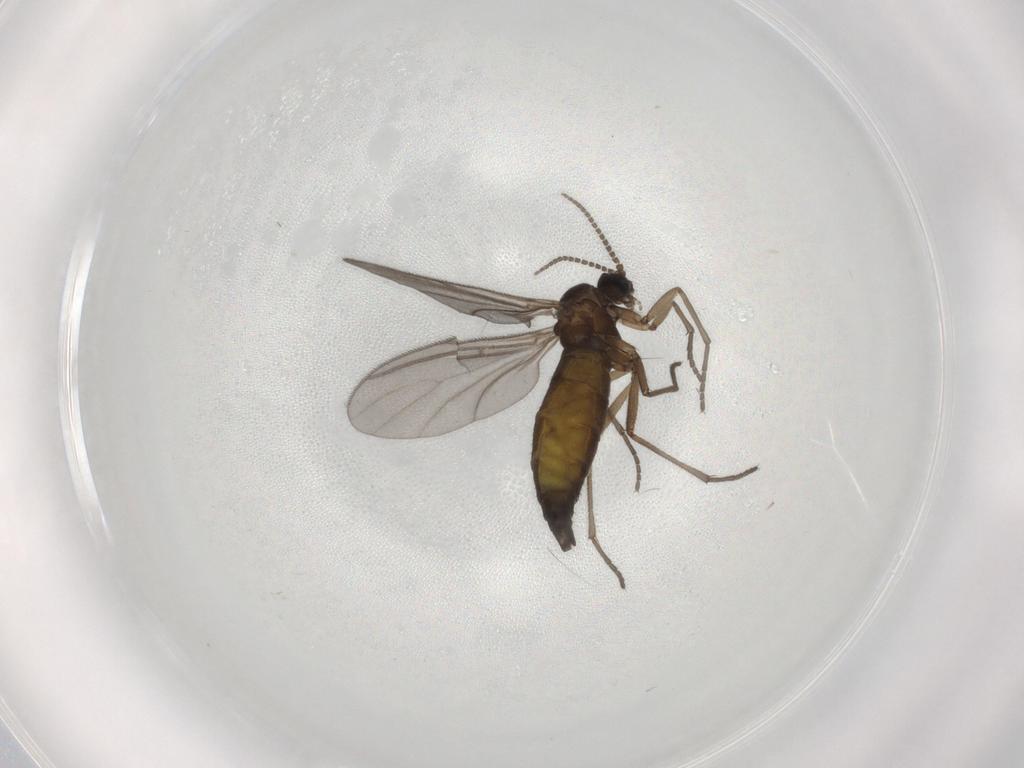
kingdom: Animalia
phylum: Arthropoda
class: Insecta
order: Diptera
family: Sciaridae
